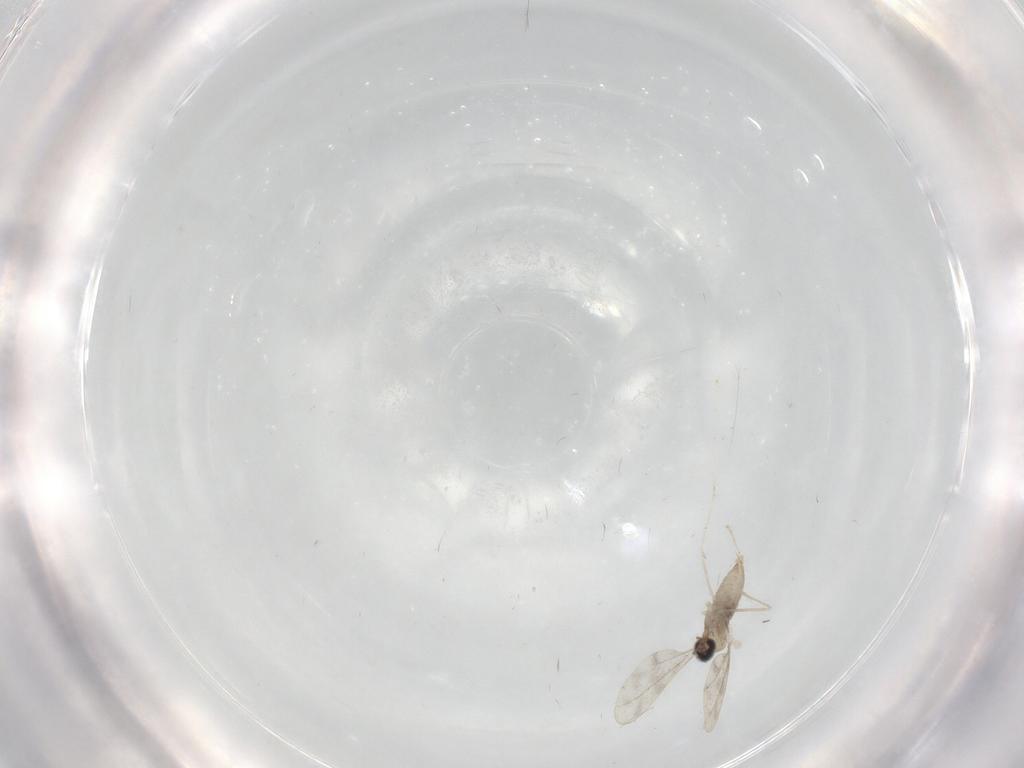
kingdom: Animalia
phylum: Arthropoda
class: Insecta
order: Diptera
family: Cecidomyiidae
